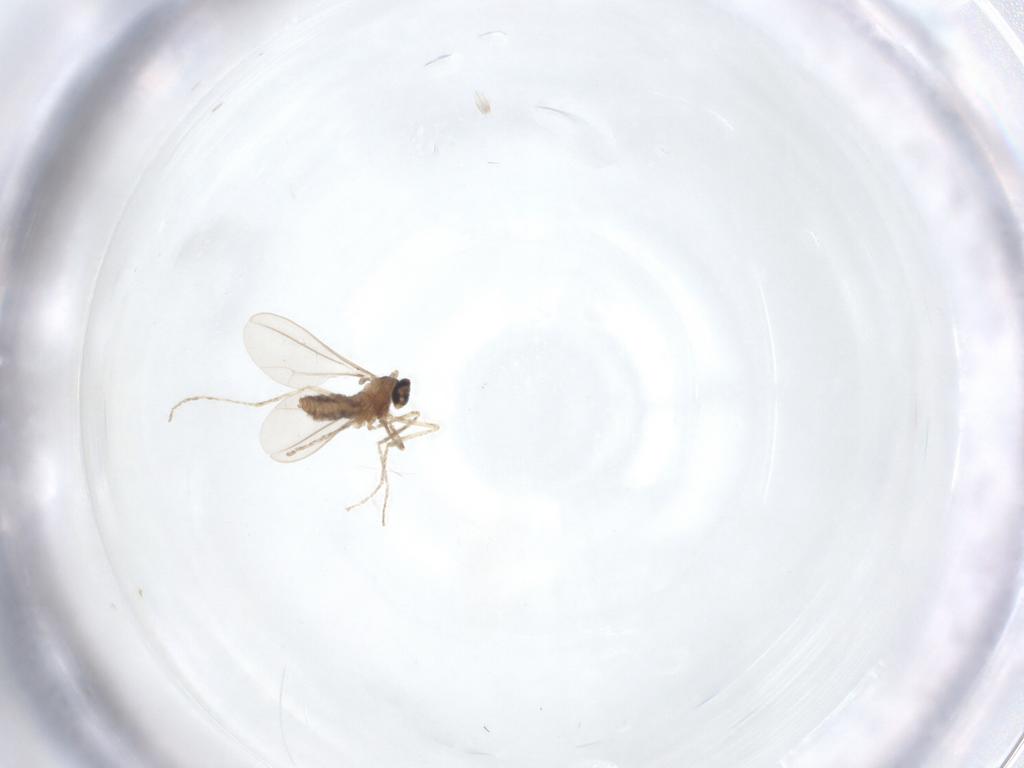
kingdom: Animalia
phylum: Arthropoda
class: Insecta
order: Diptera
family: Cecidomyiidae
